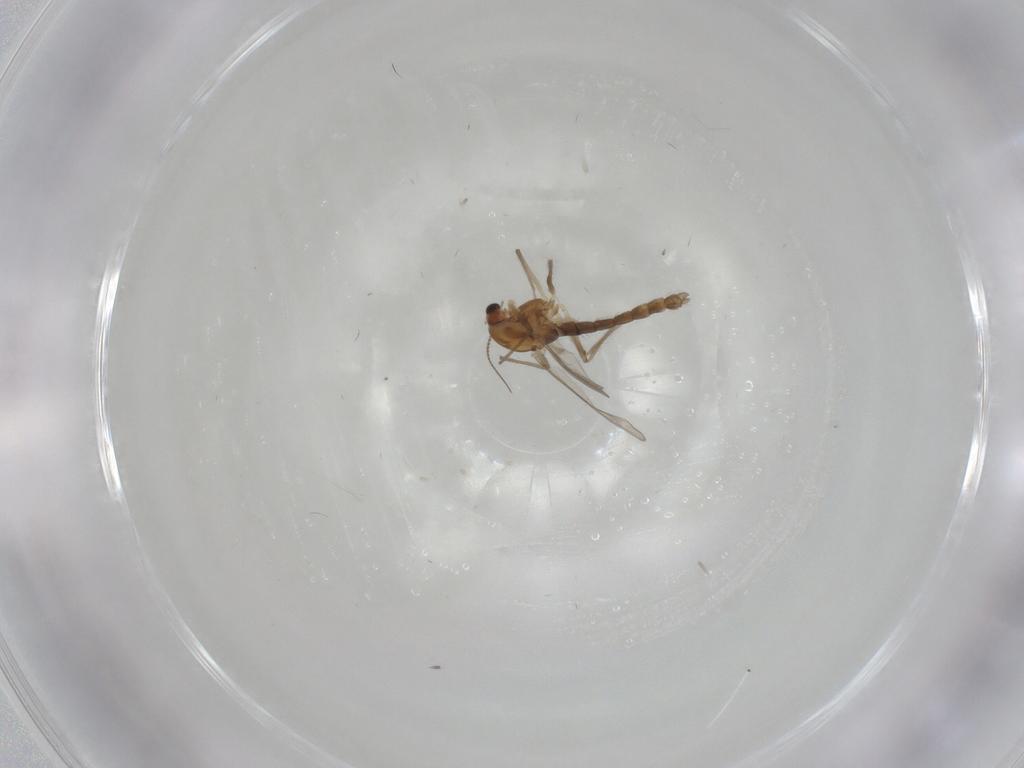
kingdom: Animalia
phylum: Arthropoda
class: Insecta
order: Diptera
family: Chironomidae
